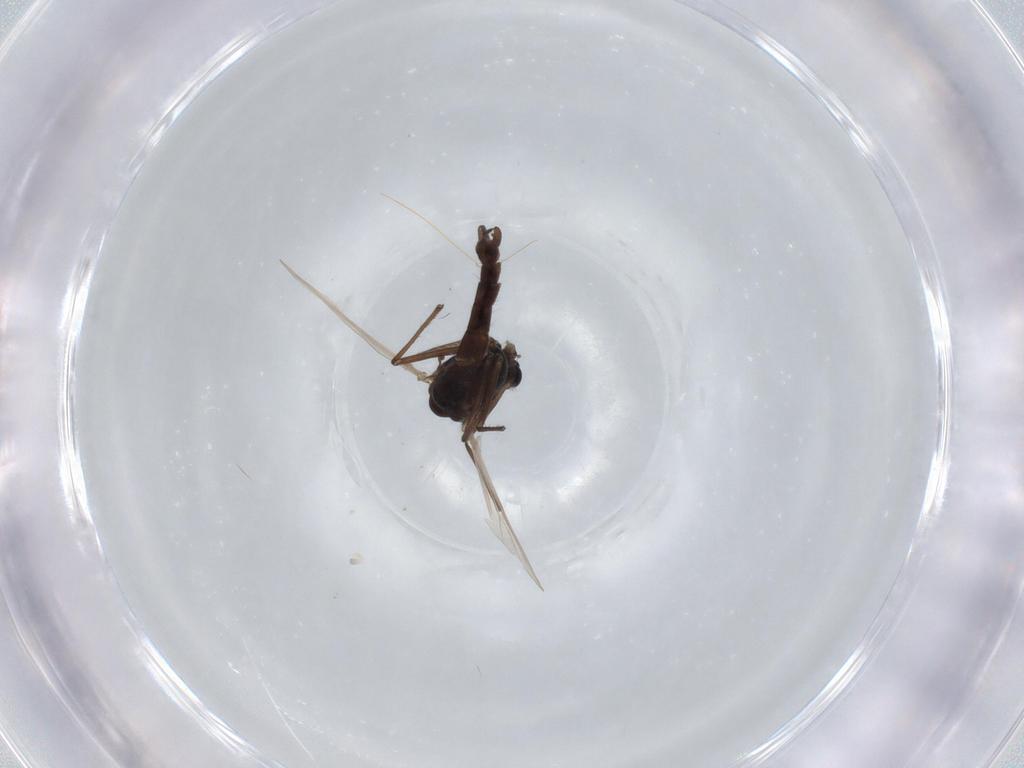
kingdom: Animalia
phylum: Arthropoda
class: Insecta
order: Diptera
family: Chironomidae
